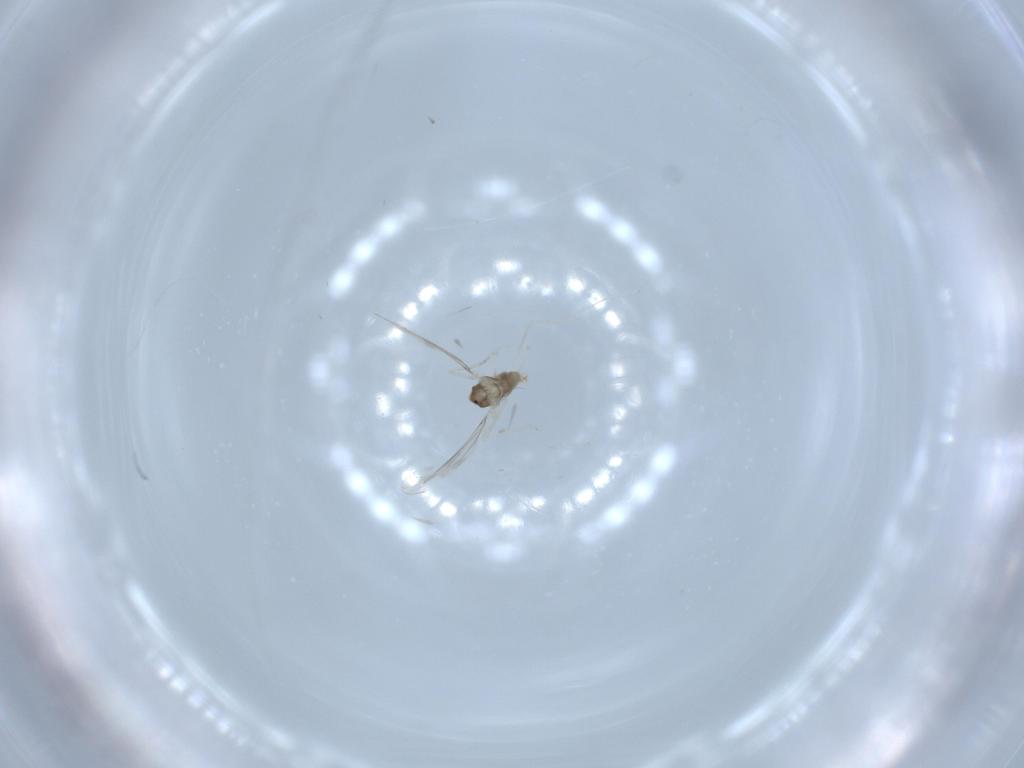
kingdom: Animalia
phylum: Arthropoda
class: Insecta
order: Diptera
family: Cecidomyiidae
